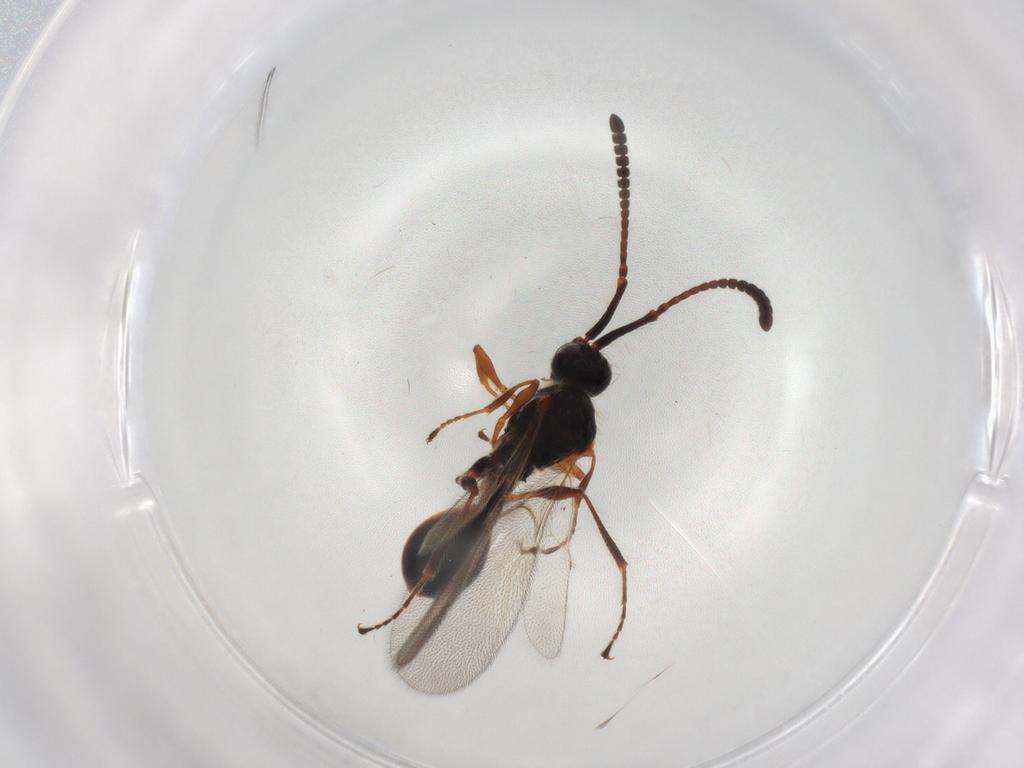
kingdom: Animalia
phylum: Arthropoda
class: Insecta
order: Hymenoptera
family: Diapriidae
